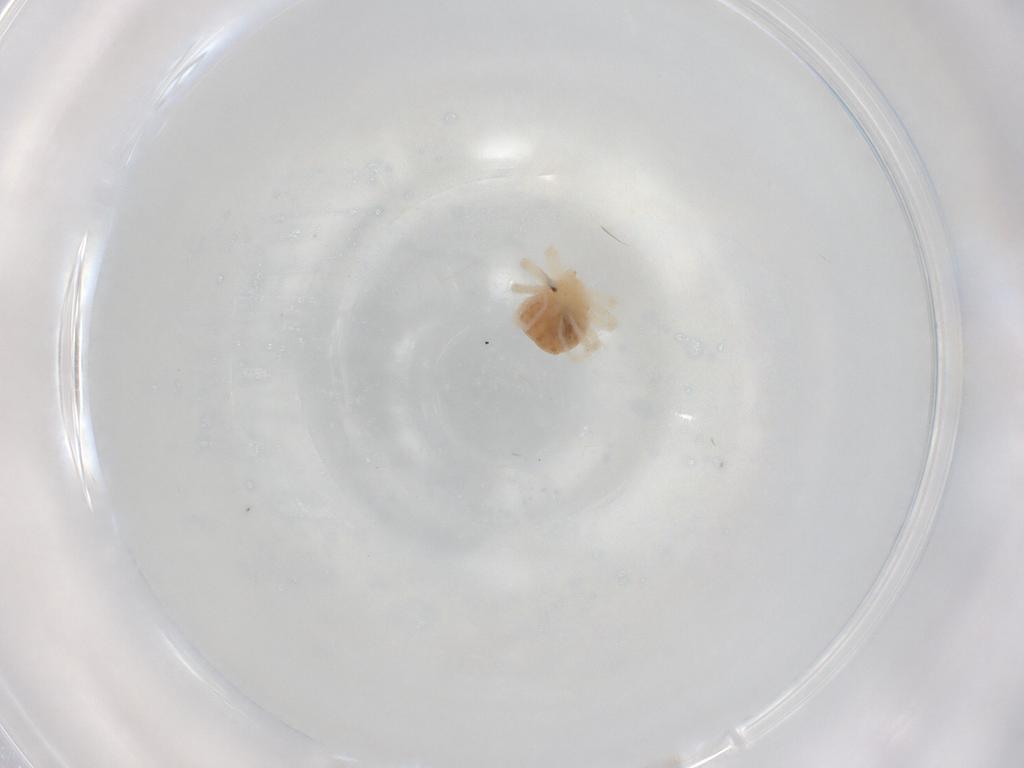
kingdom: Animalia
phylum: Arthropoda
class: Arachnida
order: Trombidiformes
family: Anystidae
